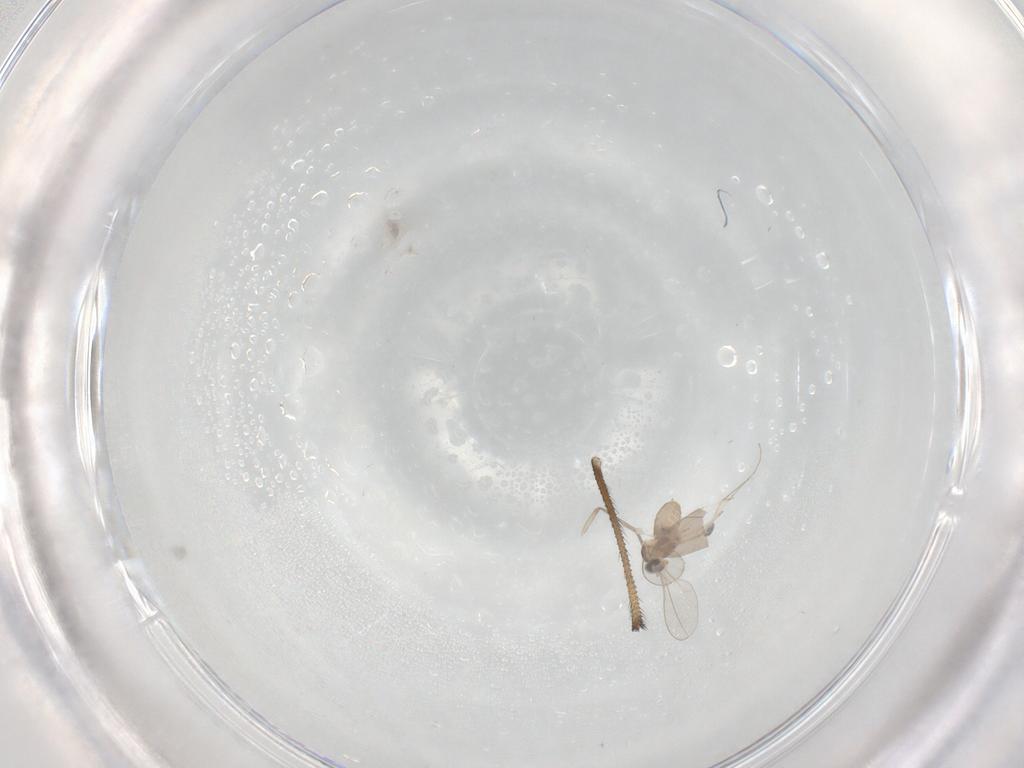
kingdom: Animalia
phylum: Arthropoda
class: Insecta
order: Diptera
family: Cecidomyiidae
